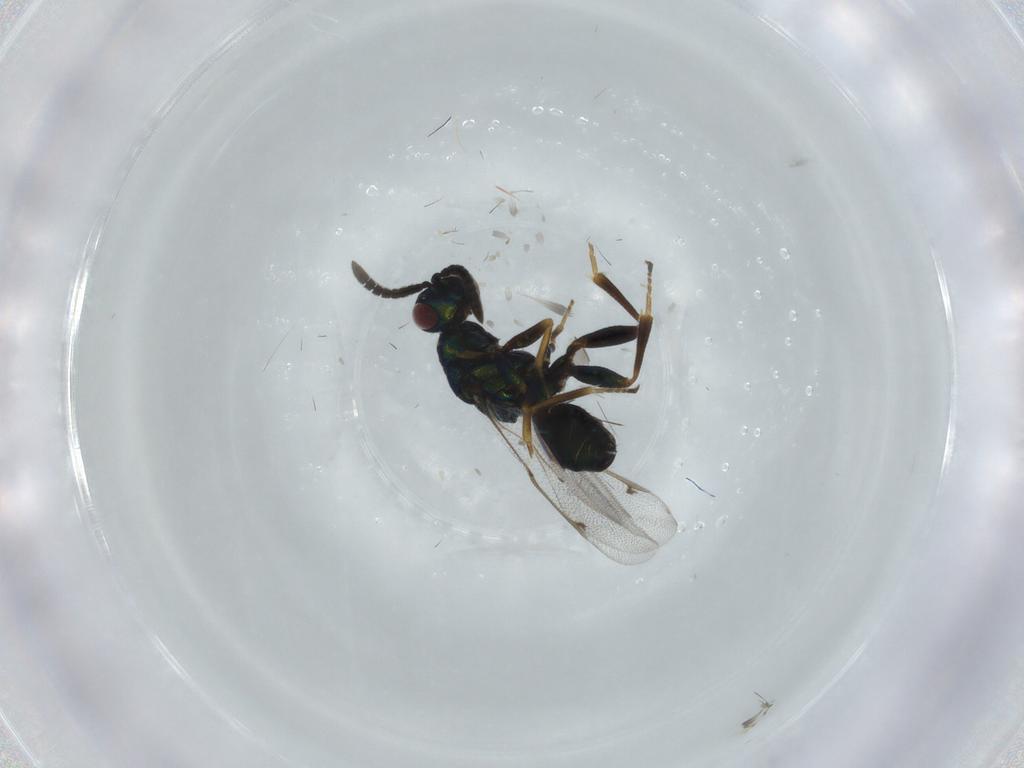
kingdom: Animalia
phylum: Arthropoda
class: Insecta
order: Hymenoptera
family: Torymidae
